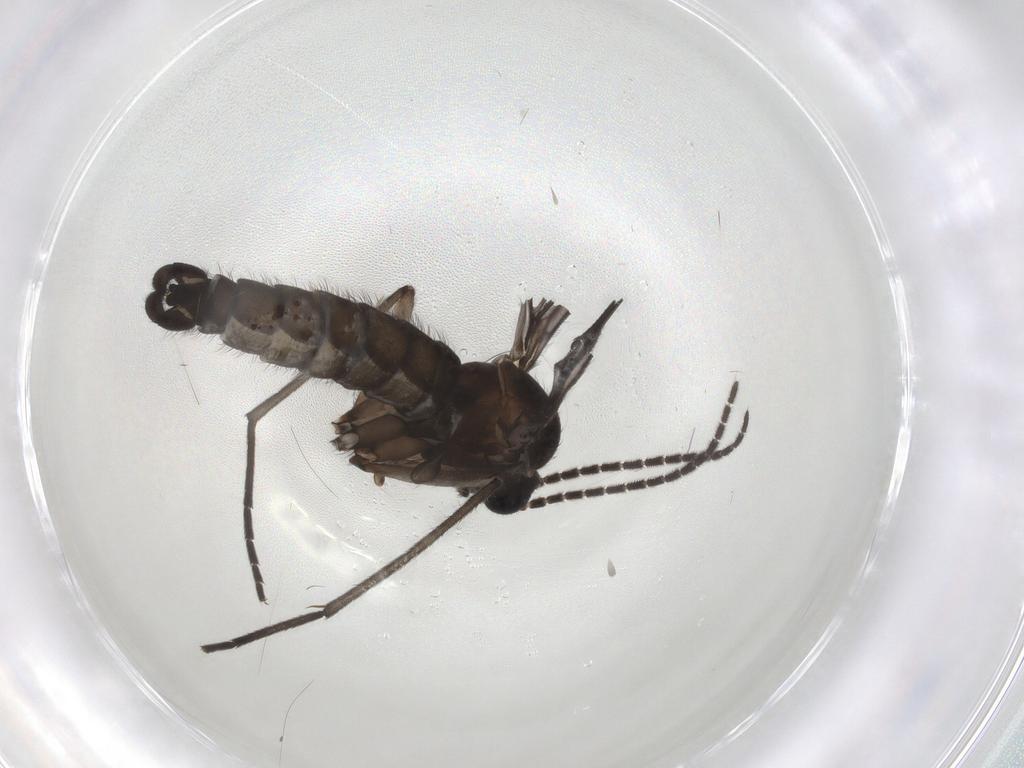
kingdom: Animalia
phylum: Arthropoda
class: Insecta
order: Diptera
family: Sciaridae
